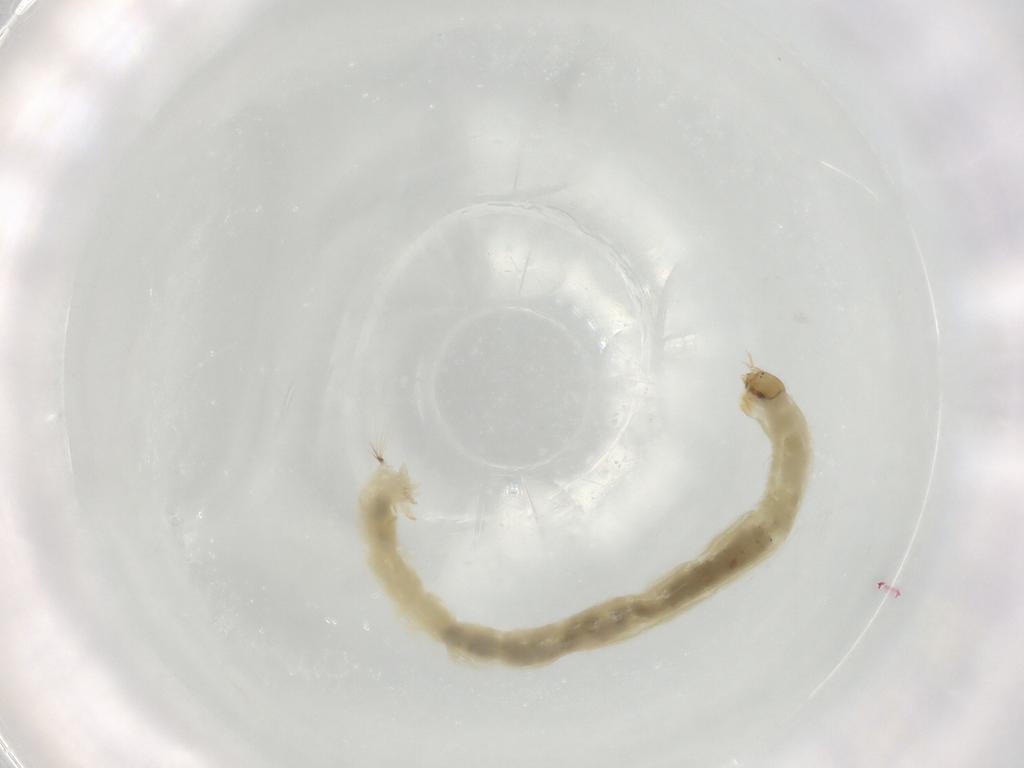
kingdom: Animalia
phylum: Arthropoda
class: Insecta
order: Diptera
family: Chironomidae
